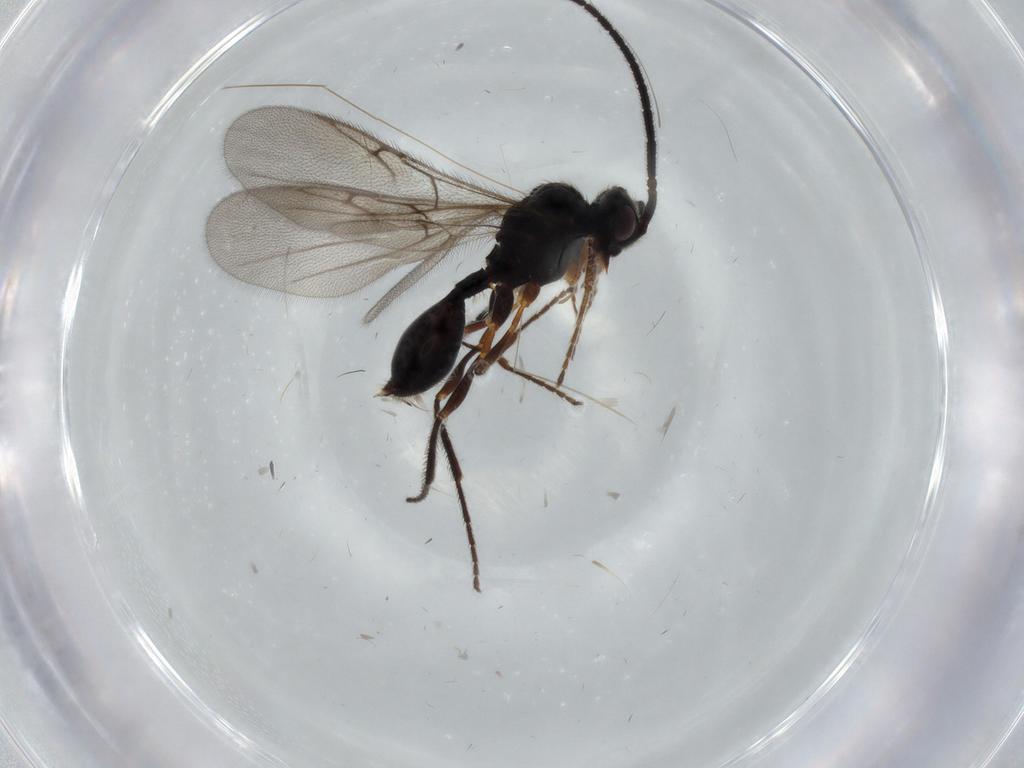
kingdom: Animalia
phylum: Arthropoda
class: Insecta
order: Hymenoptera
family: Diapriidae
